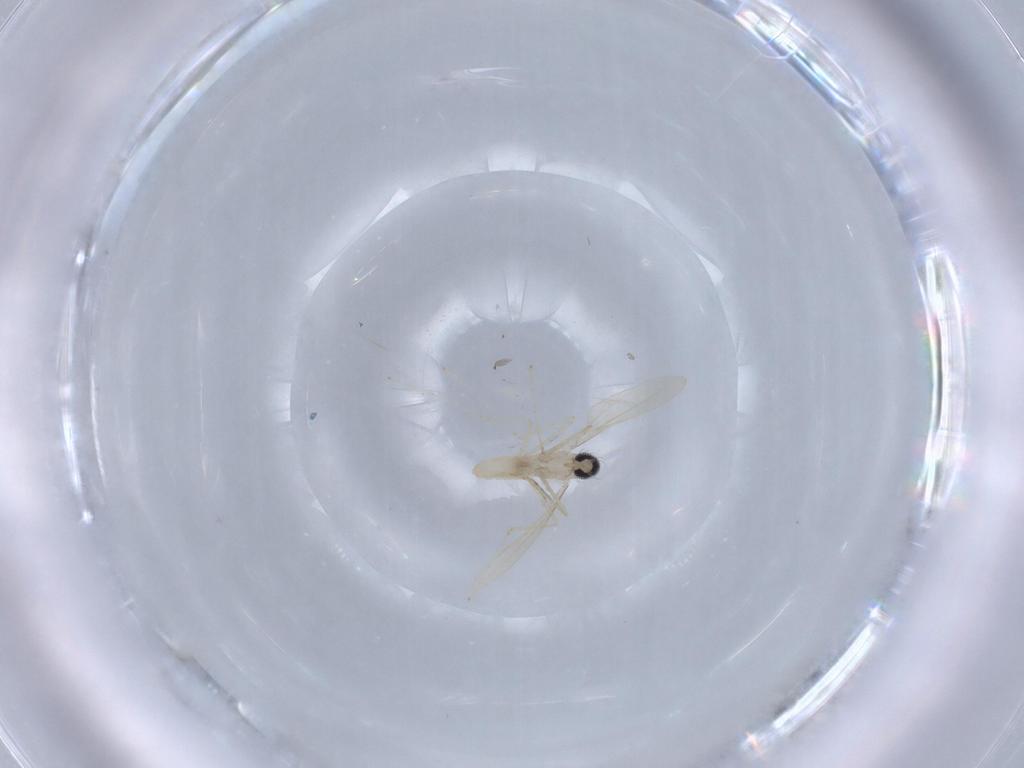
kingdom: Animalia
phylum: Arthropoda
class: Insecta
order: Diptera
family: Cecidomyiidae
